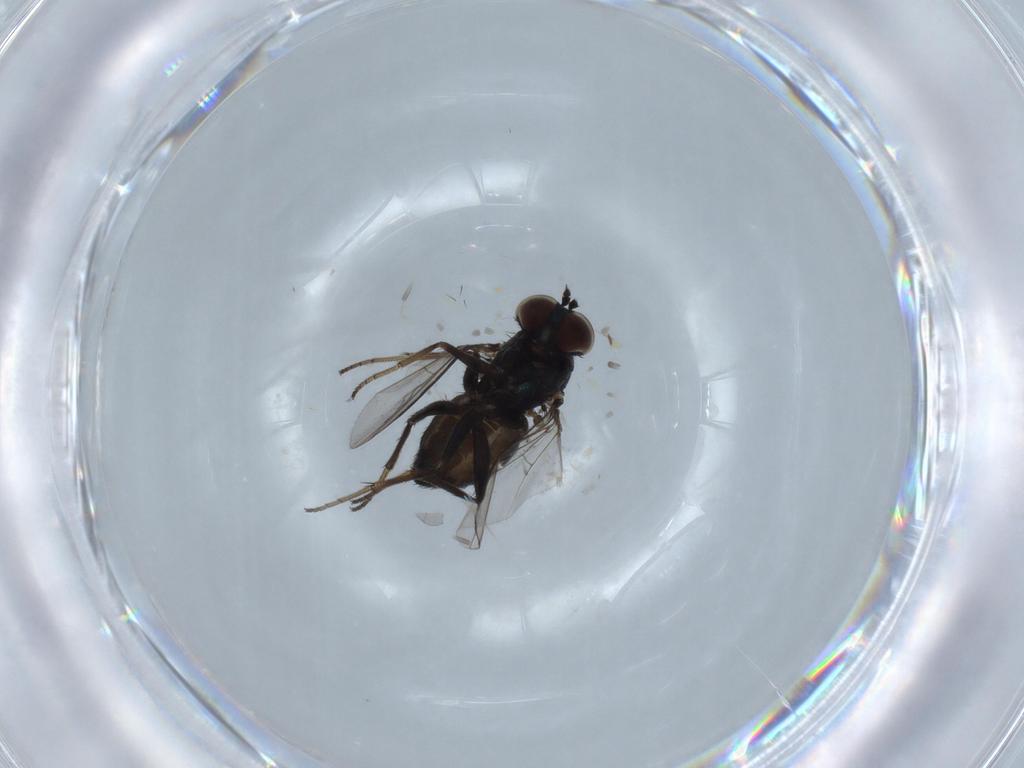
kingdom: Animalia
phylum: Arthropoda
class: Insecta
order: Diptera
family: Dolichopodidae
